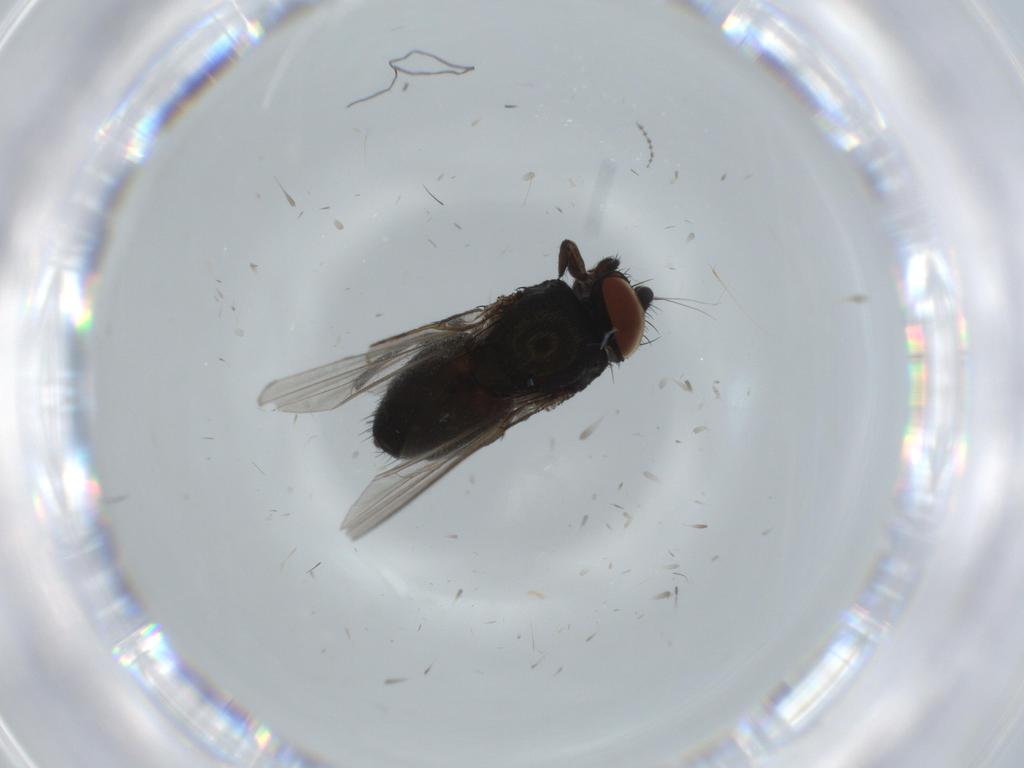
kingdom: Animalia
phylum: Arthropoda
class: Insecta
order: Diptera
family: Milichiidae
